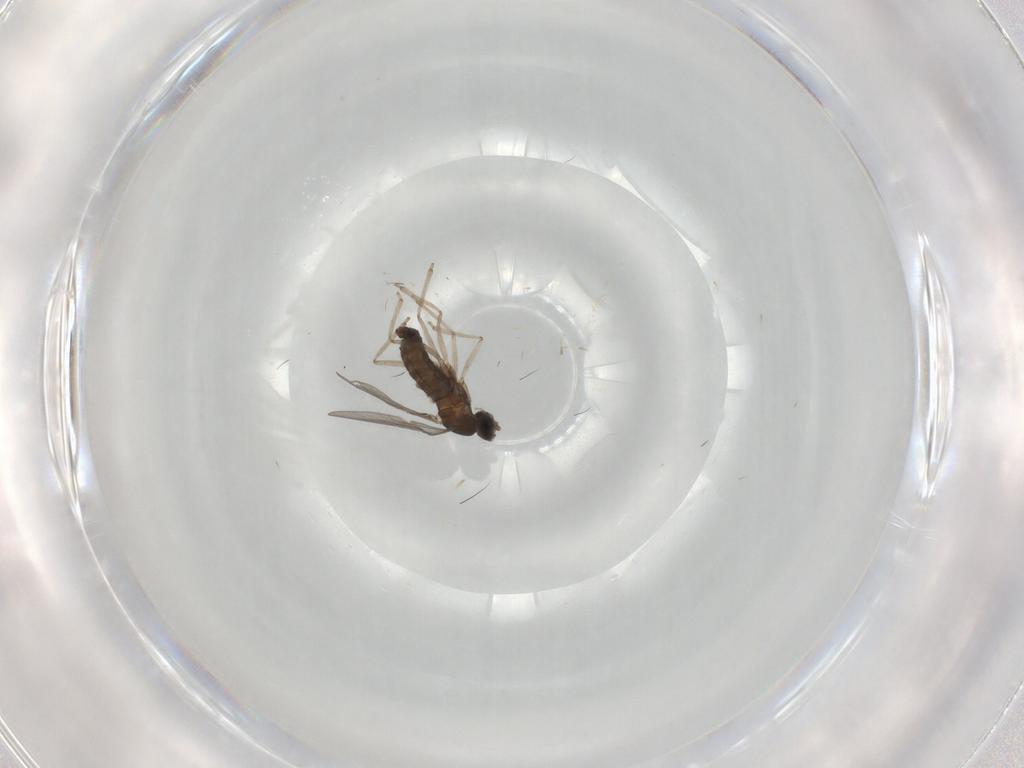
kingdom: Animalia
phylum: Arthropoda
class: Insecta
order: Diptera
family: Cecidomyiidae
